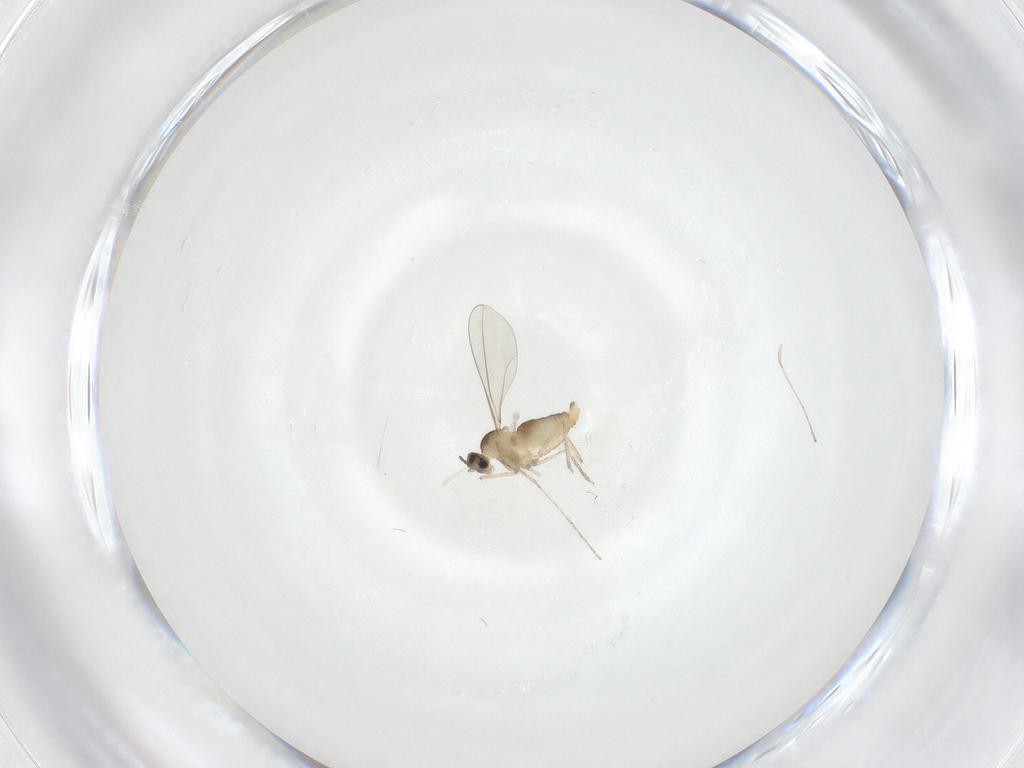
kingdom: Animalia
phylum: Arthropoda
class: Insecta
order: Diptera
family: Cecidomyiidae
